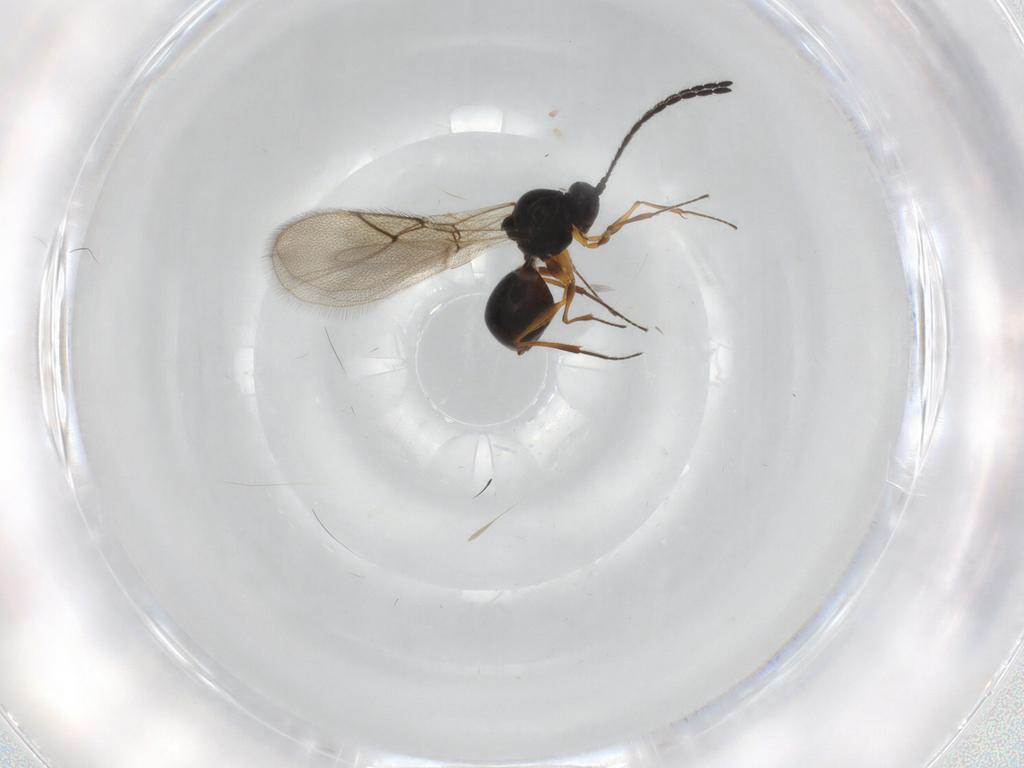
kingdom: Animalia
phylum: Arthropoda
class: Insecta
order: Hymenoptera
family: Figitidae
